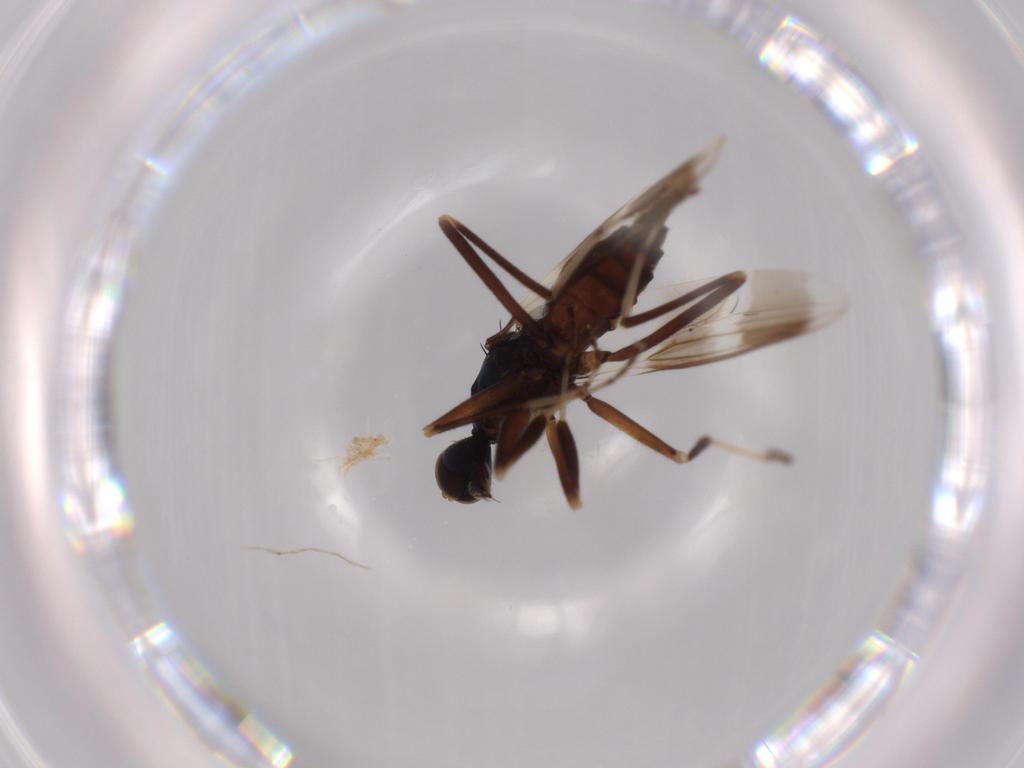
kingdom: Animalia
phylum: Arthropoda
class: Insecta
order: Diptera
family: Hybotidae
